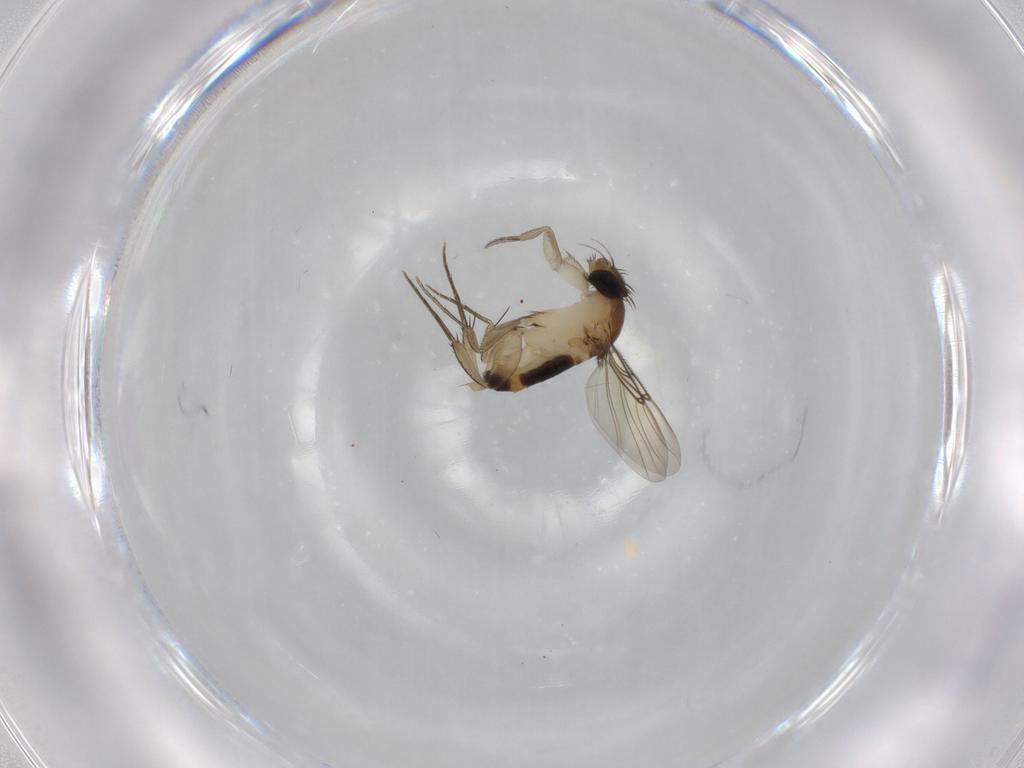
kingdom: Animalia
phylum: Arthropoda
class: Insecta
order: Diptera
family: Phoridae
